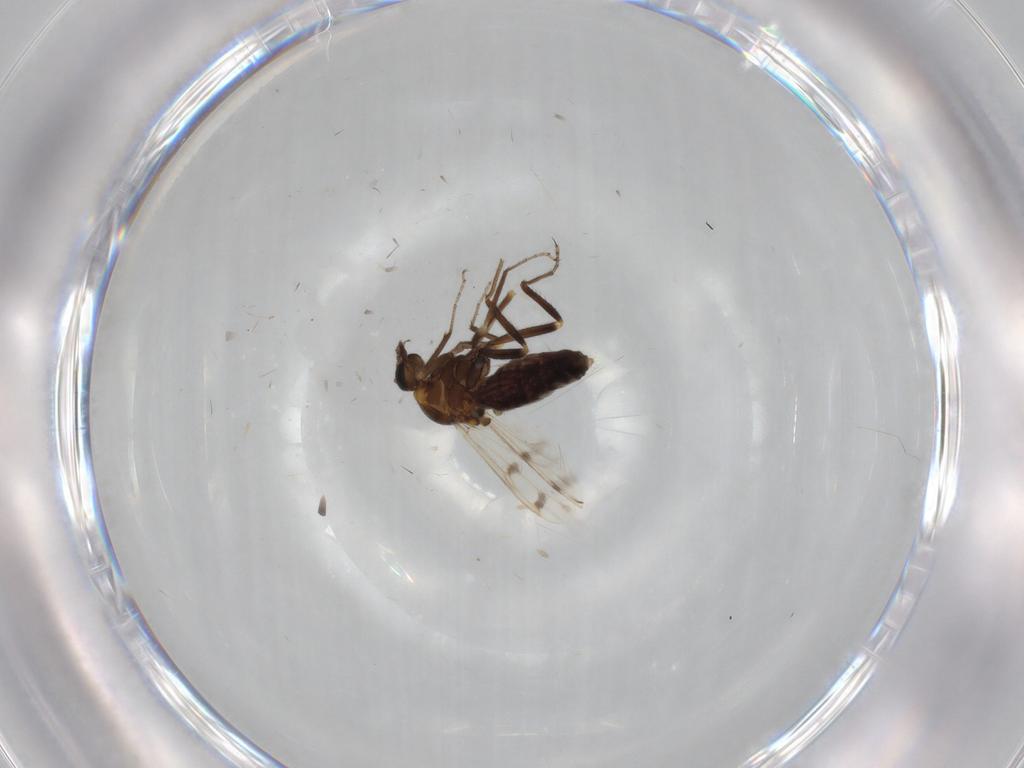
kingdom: Animalia
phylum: Arthropoda
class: Insecta
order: Diptera
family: Ceratopogonidae
